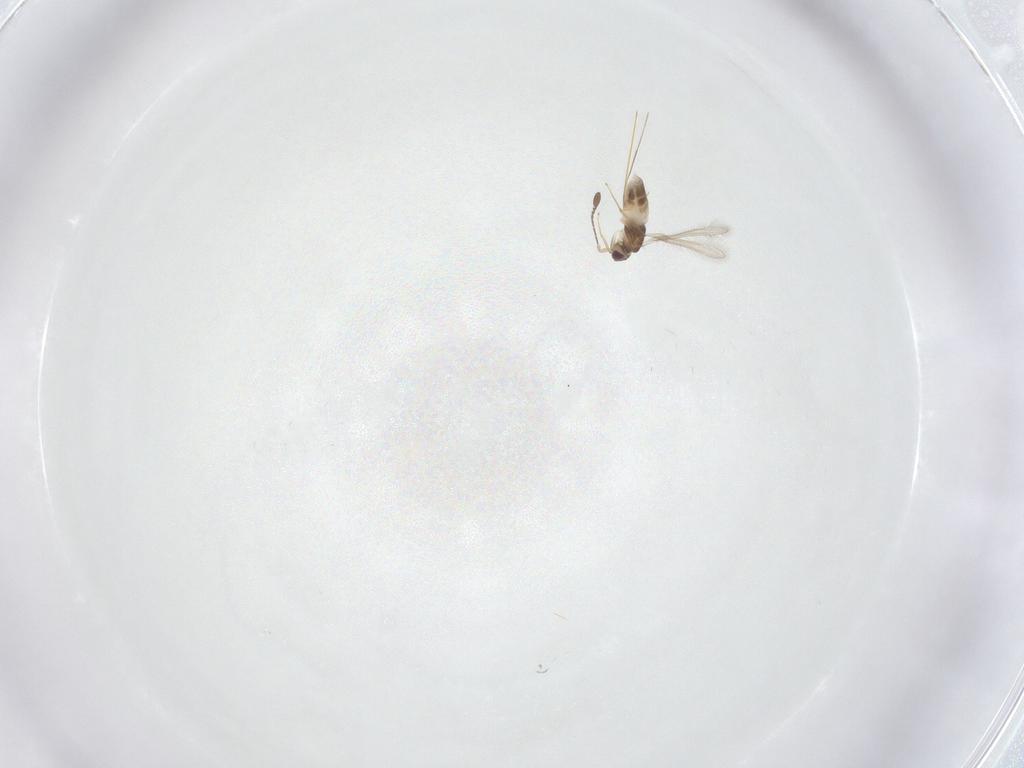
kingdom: Animalia
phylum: Arthropoda
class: Insecta
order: Hymenoptera
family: Mymaridae
